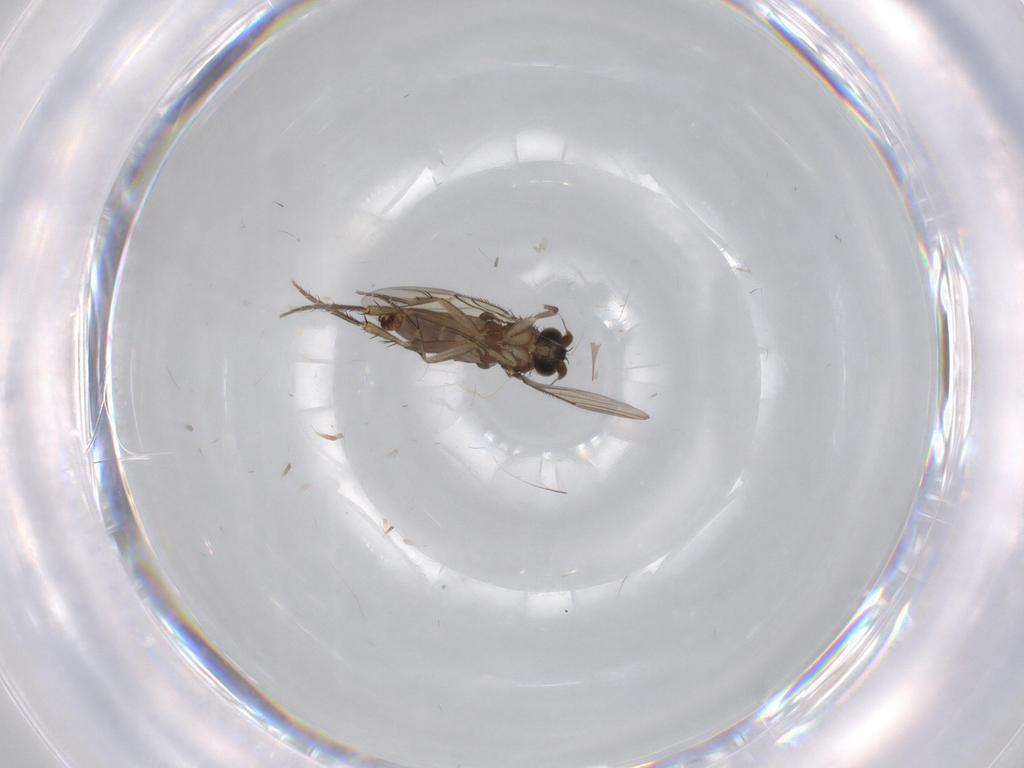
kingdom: Animalia
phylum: Arthropoda
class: Insecta
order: Diptera
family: Phoridae
